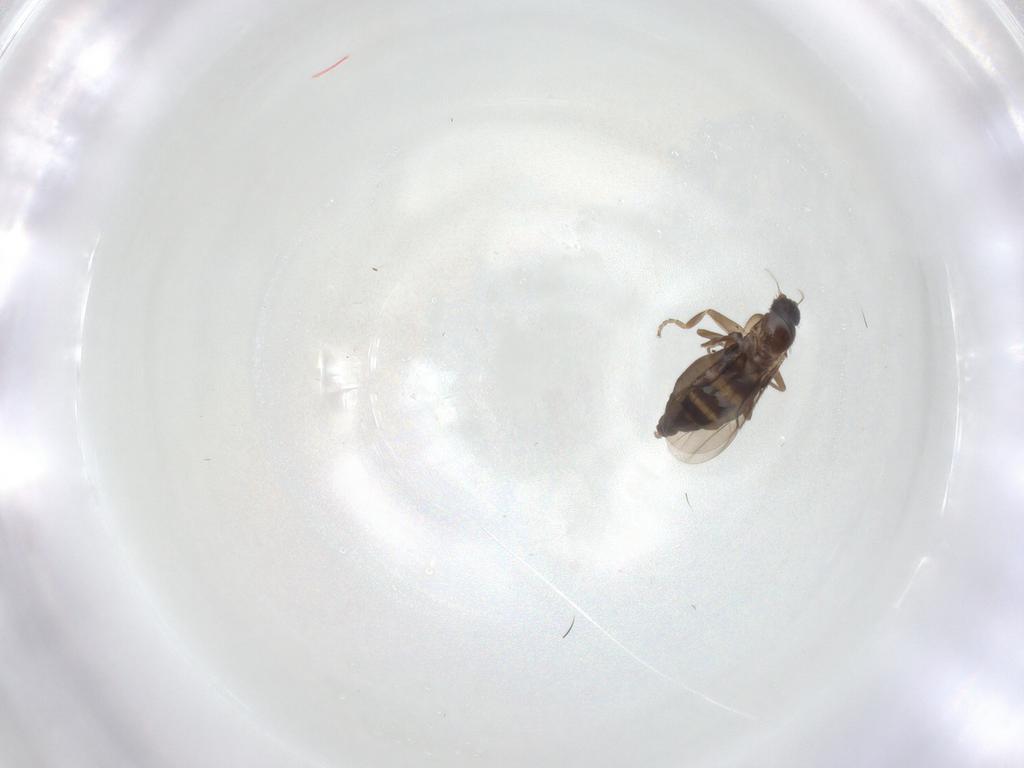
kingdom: Animalia
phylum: Arthropoda
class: Insecta
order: Diptera
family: Phoridae
